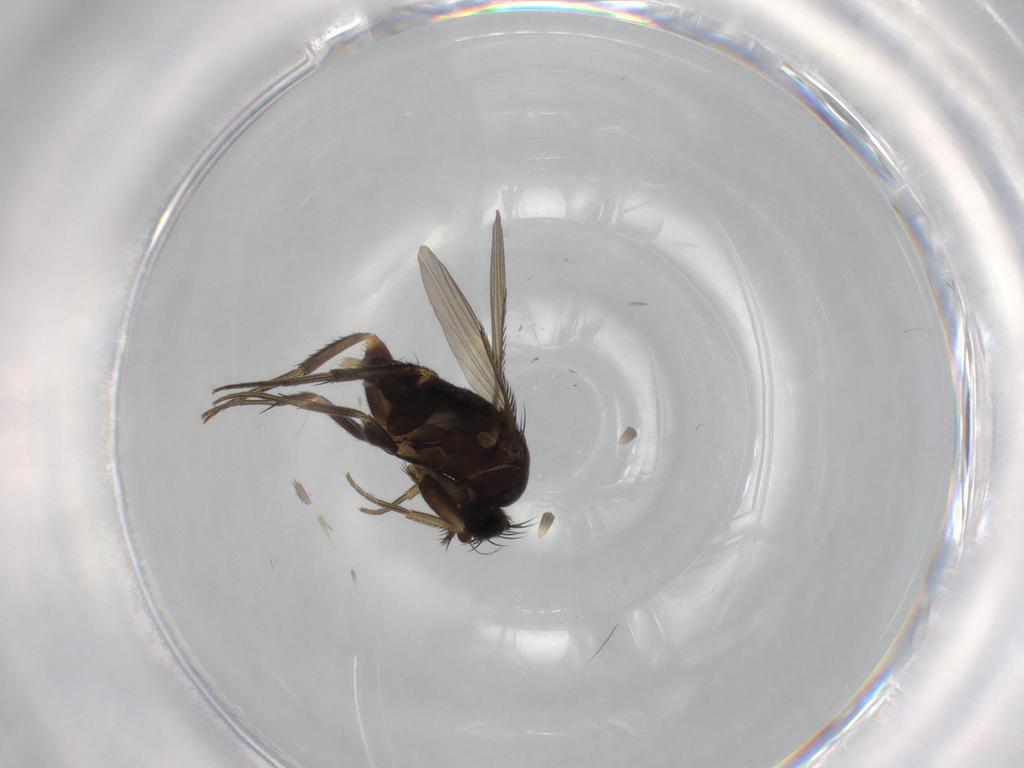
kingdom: Animalia
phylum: Arthropoda
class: Insecta
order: Diptera
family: Phoridae
